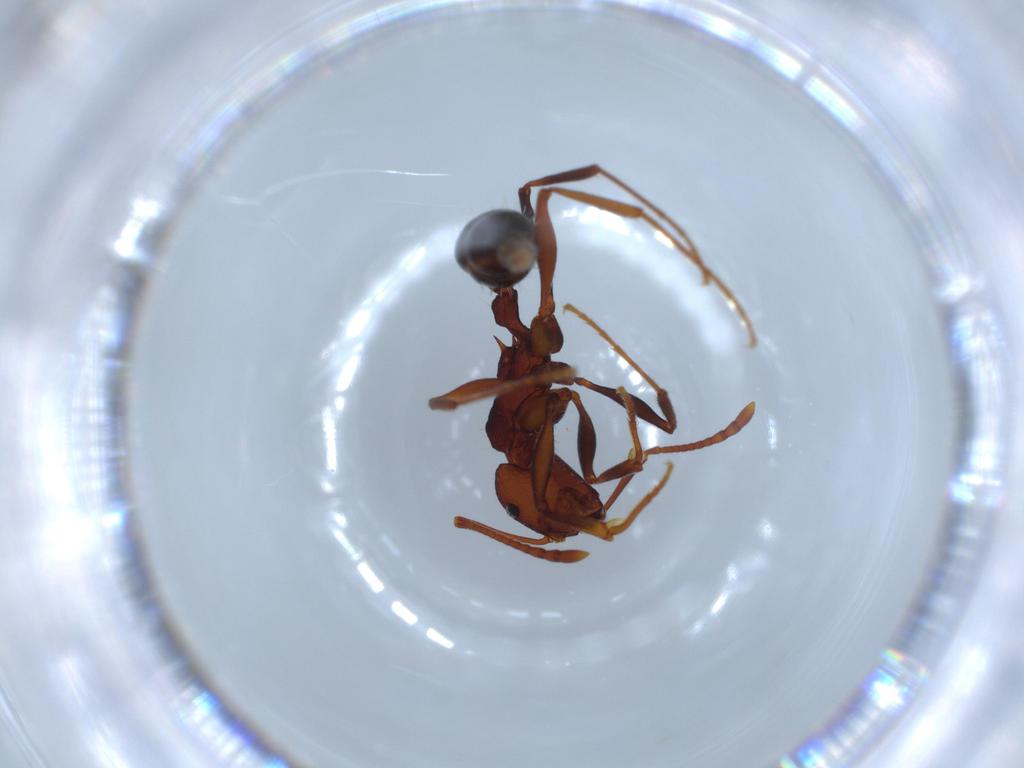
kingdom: Animalia
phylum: Arthropoda
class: Insecta
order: Hymenoptera
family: Formicidae
